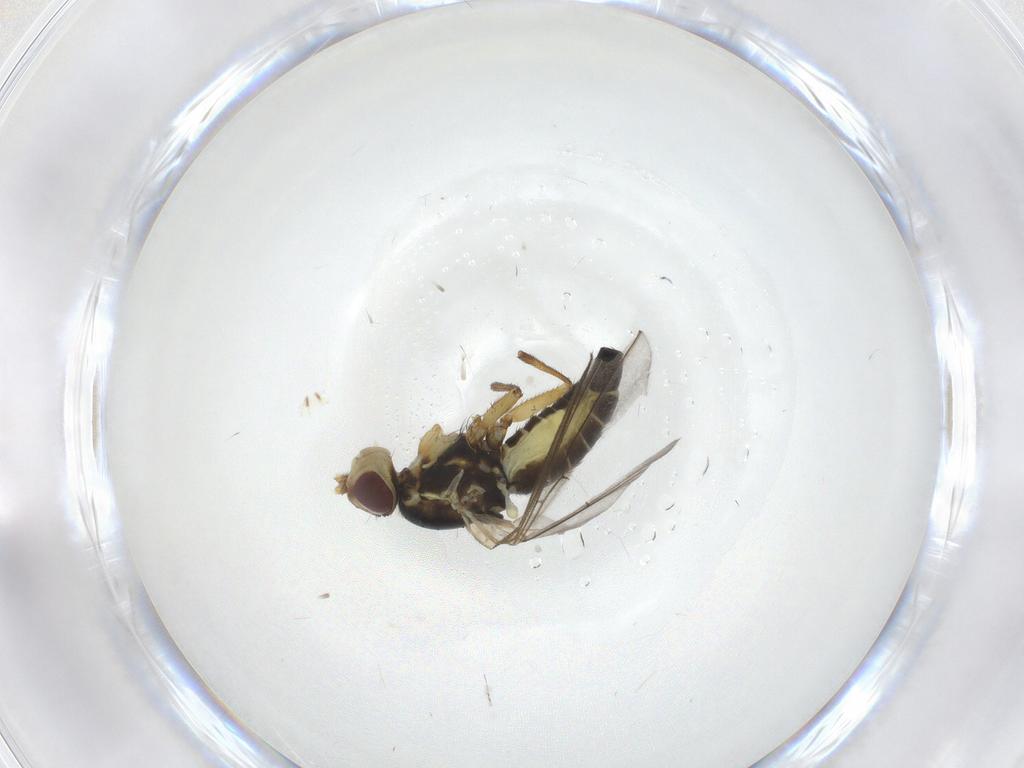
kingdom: Animalia
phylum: Arthropoda
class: Insecta
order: Diptera
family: Agromyzidae
